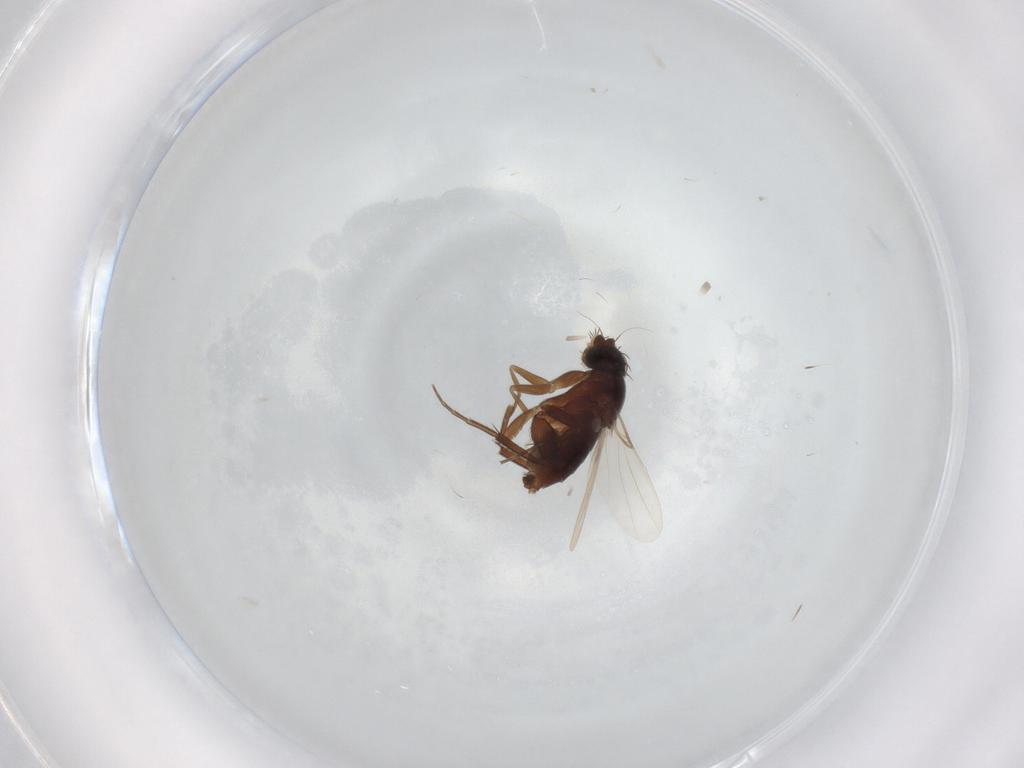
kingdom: Animalia
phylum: Arthropoda
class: Insecta
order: Diptera
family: Phoridae
